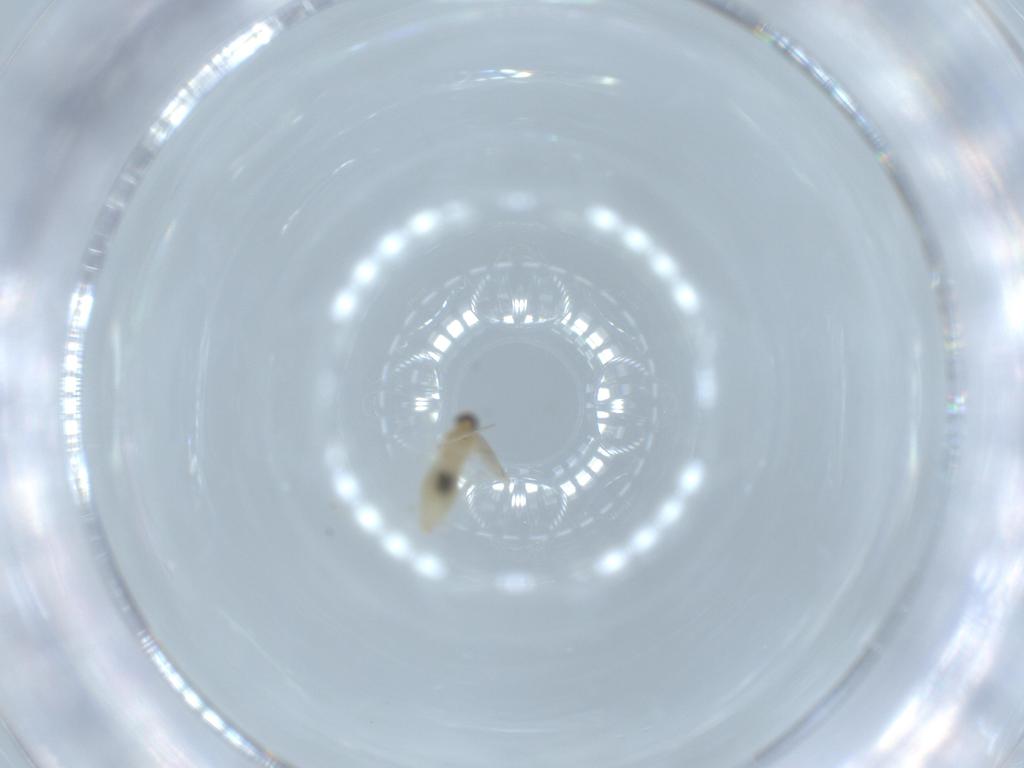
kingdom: Animalia
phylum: Arthropoda
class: Insecta
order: Diptera
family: Cecidomyiidae
